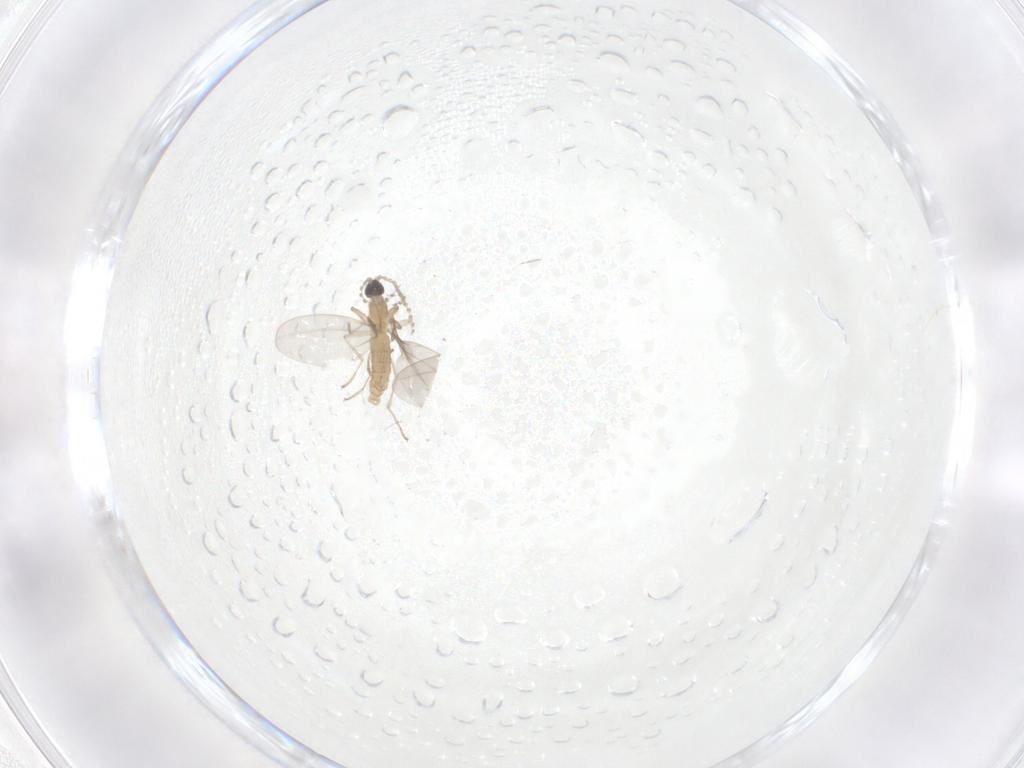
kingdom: Animalia
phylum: Arthropoda
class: Insecta
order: Diptera
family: Cecidomyiidae
